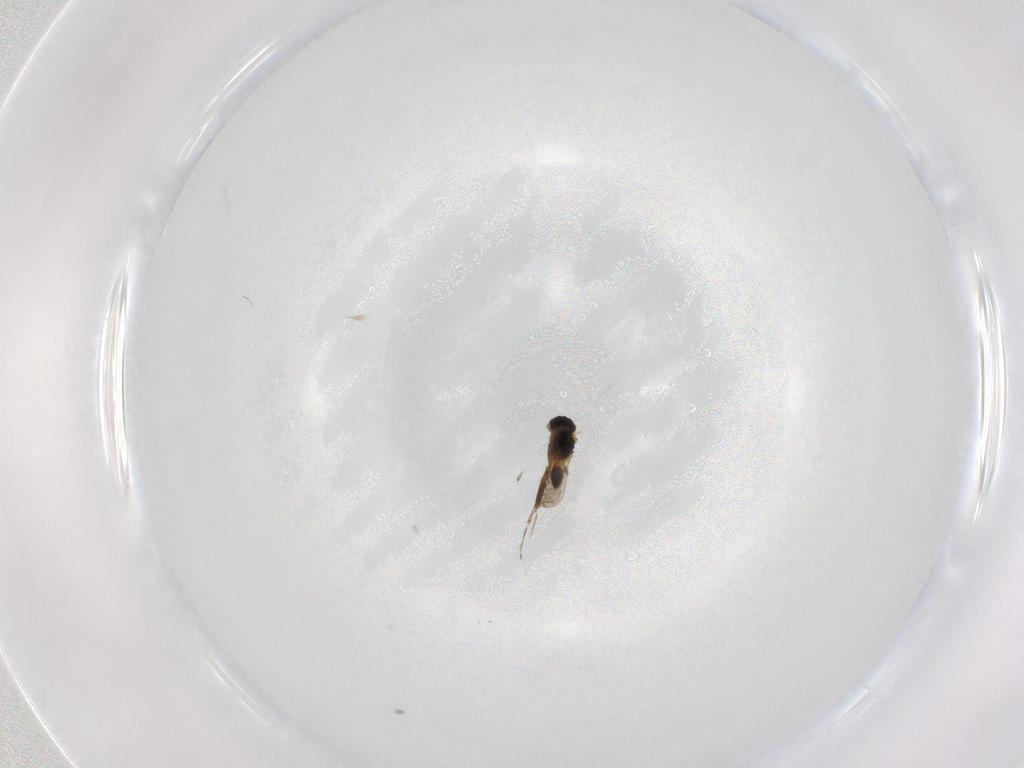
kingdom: Animalia
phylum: Arthropoda
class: Insecta
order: Hymenoptera
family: Platygastridae
